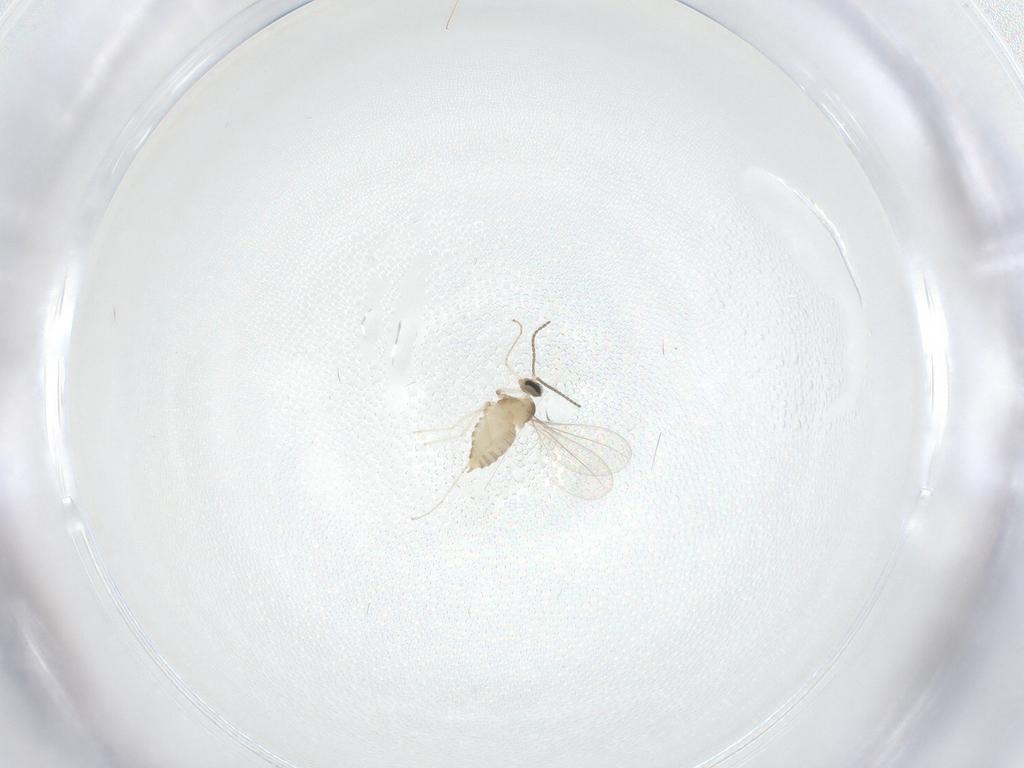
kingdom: Animalia
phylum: Arthropoda
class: Insecta
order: Diptera
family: Cecidomyiidae
